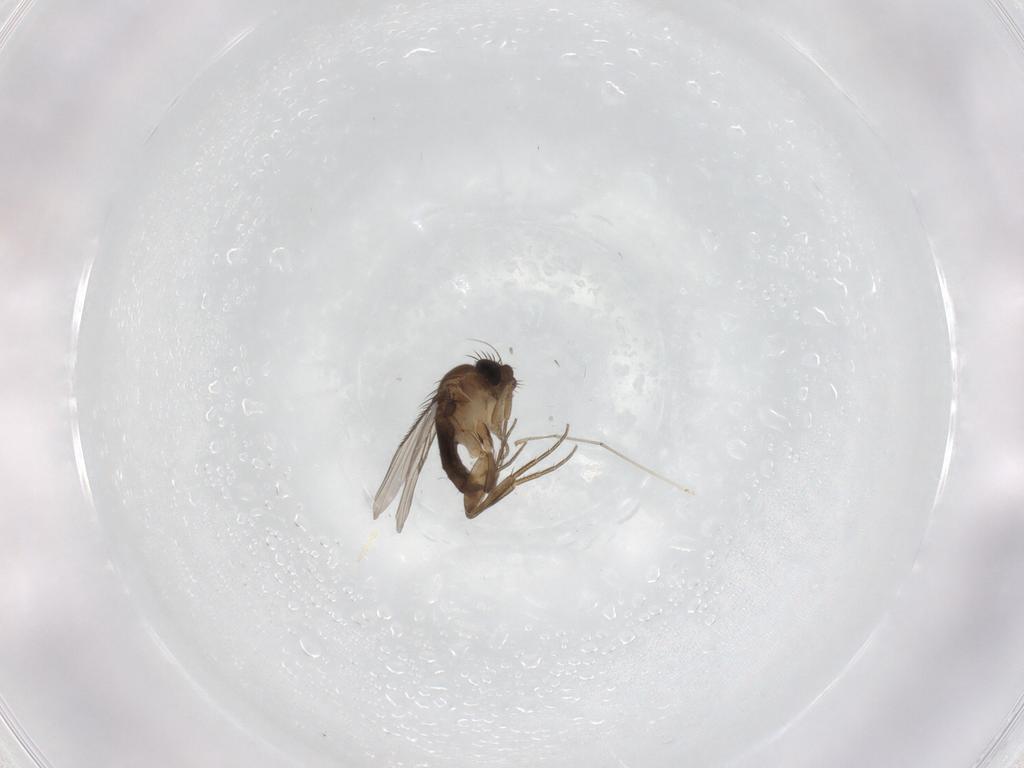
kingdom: Animalia
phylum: Arthropoda
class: Insecta
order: Diptera
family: Phoridae
